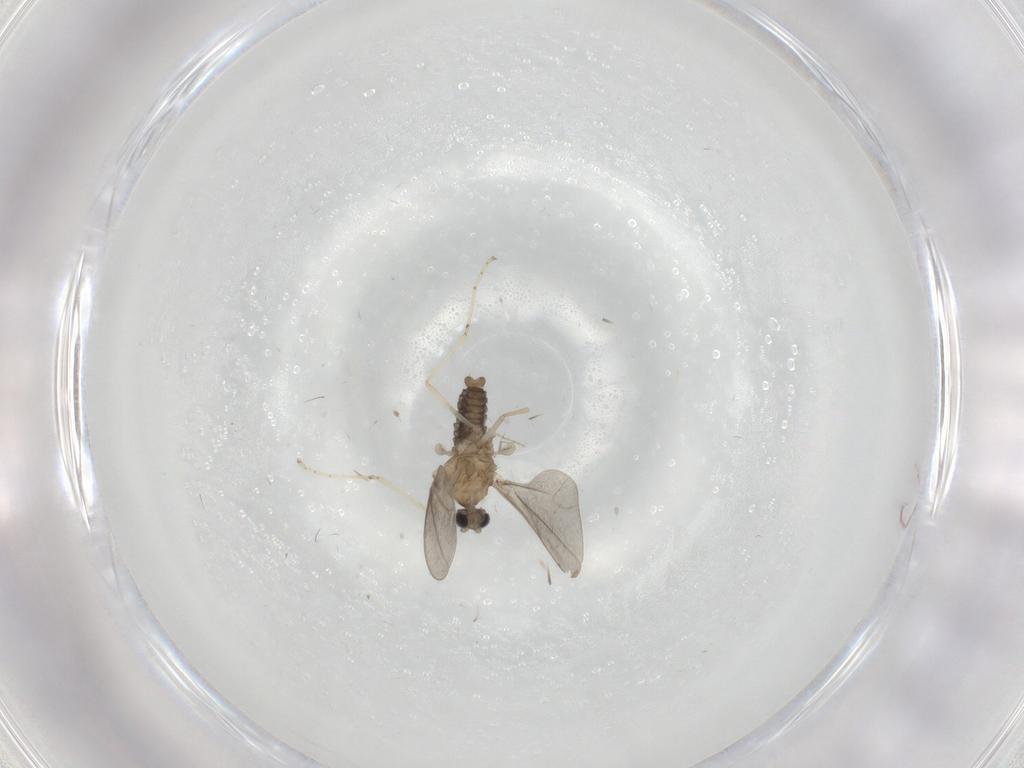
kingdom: Animalia
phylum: Arthropoda
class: Insecta
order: Diptera
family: Cecidomyiidae
